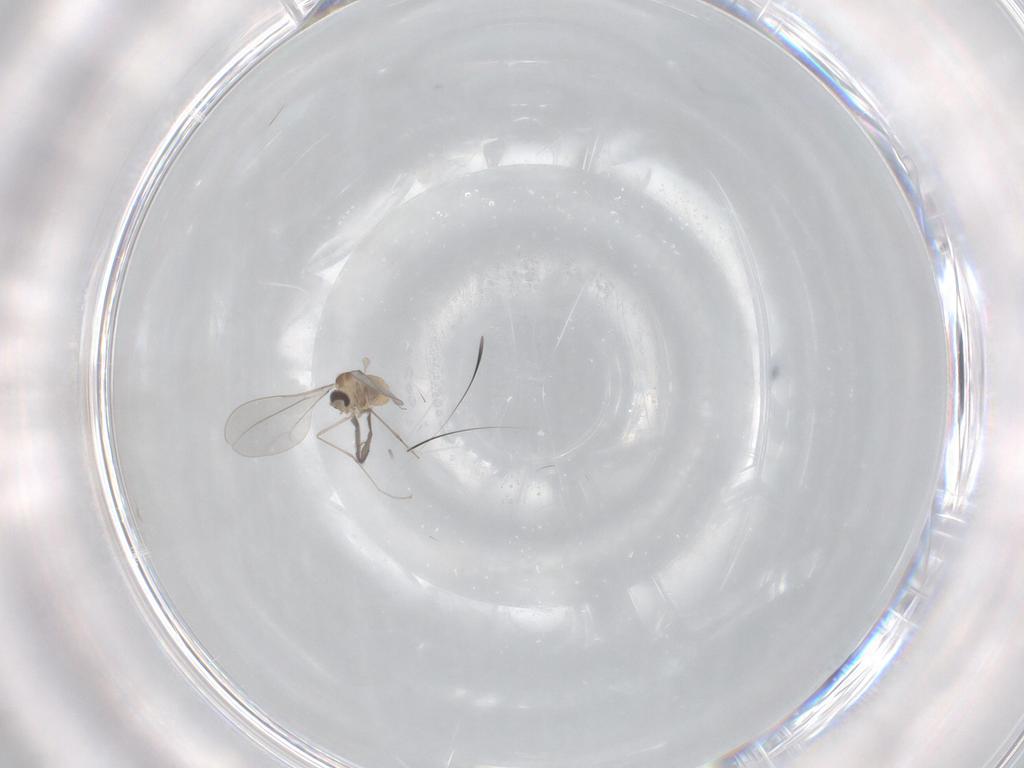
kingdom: Animalia
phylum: Arthropoda
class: Insecta
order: Diptera
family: Cecidomyiidae
